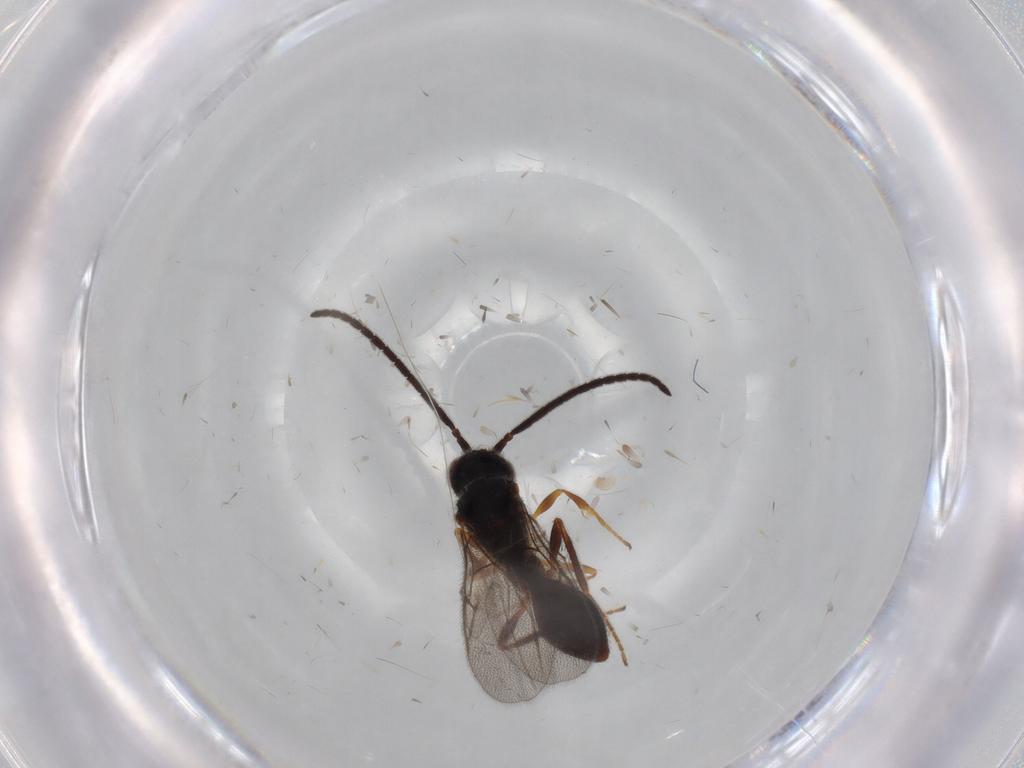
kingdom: Animalia
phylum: Arthropoda
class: Insecta
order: Hymenoptera
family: Diapriidae
